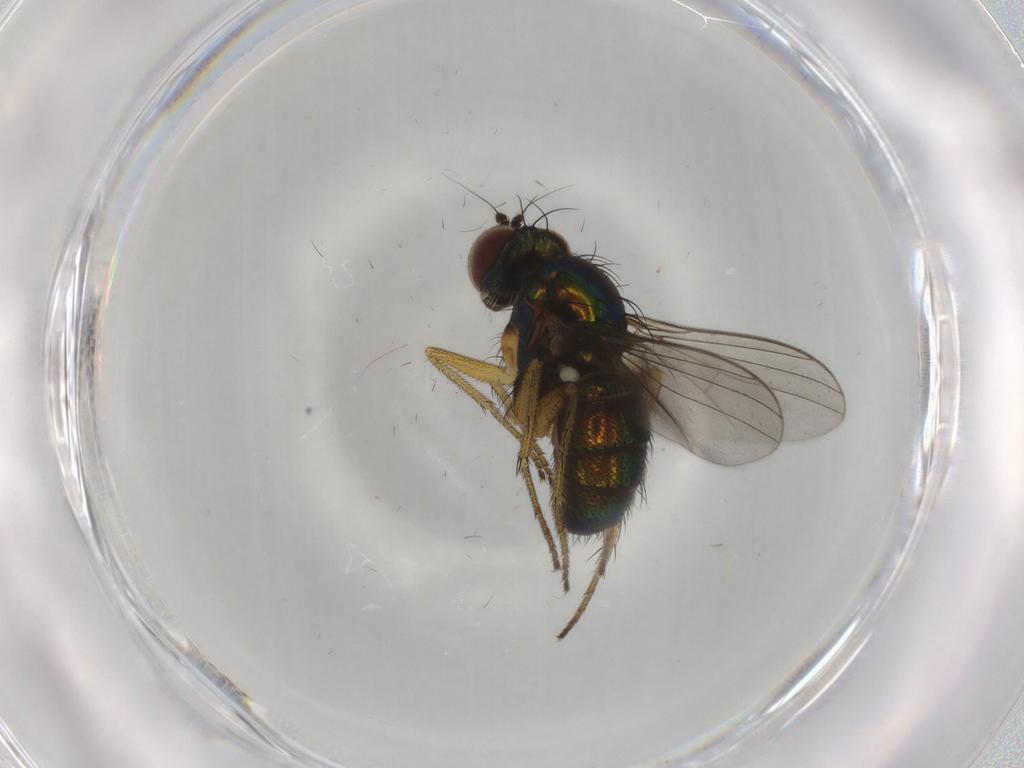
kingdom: Animalia
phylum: Arthropoda
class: Insecta
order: Diptera
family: Dolichopodidae
